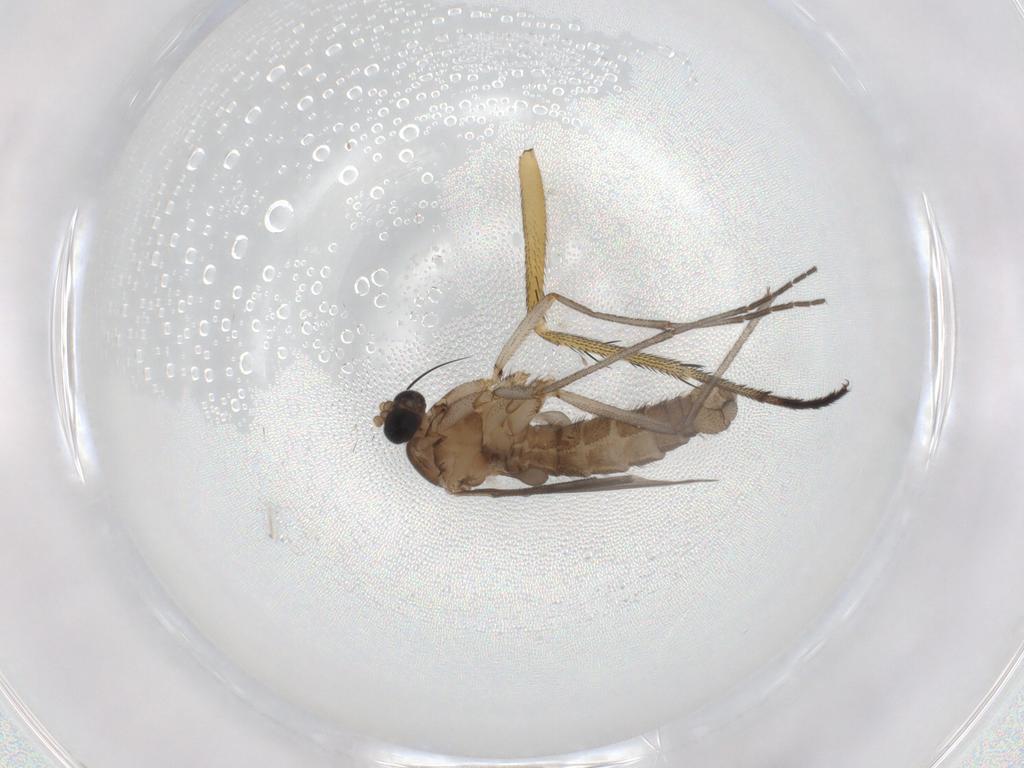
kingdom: Animalia
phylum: Arthropoda
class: Insecta
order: Diptera
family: Sciaridae
